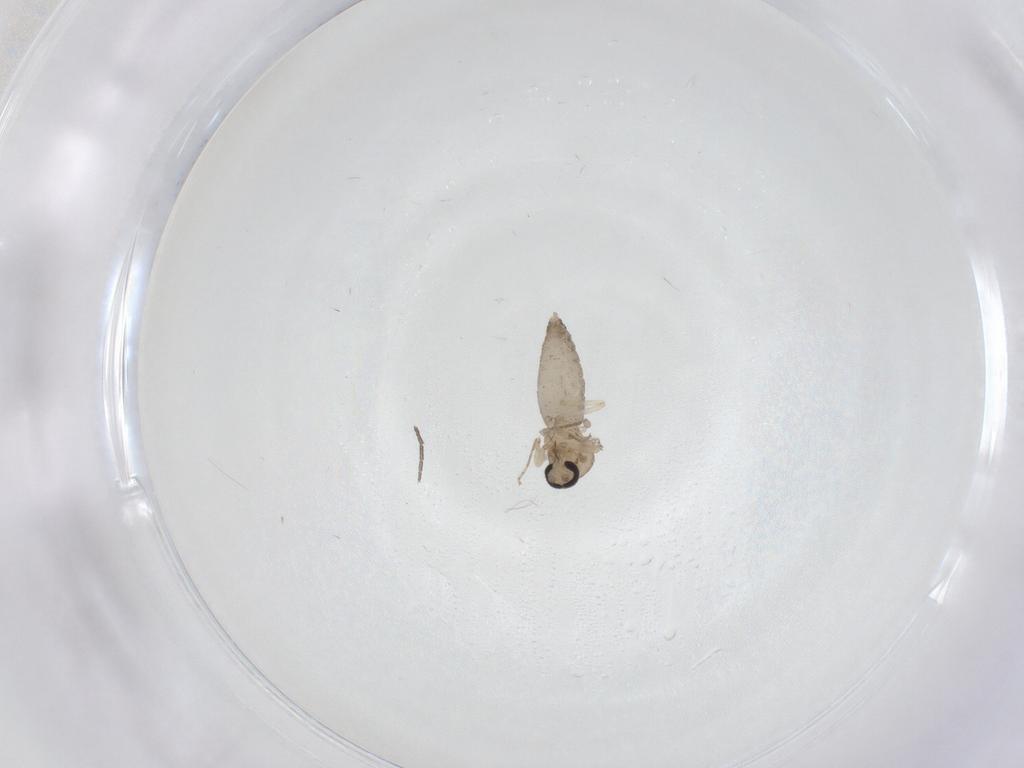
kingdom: Animalia
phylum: Arthropoda
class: Insecta
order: Diptera
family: Ceratopogonidae
